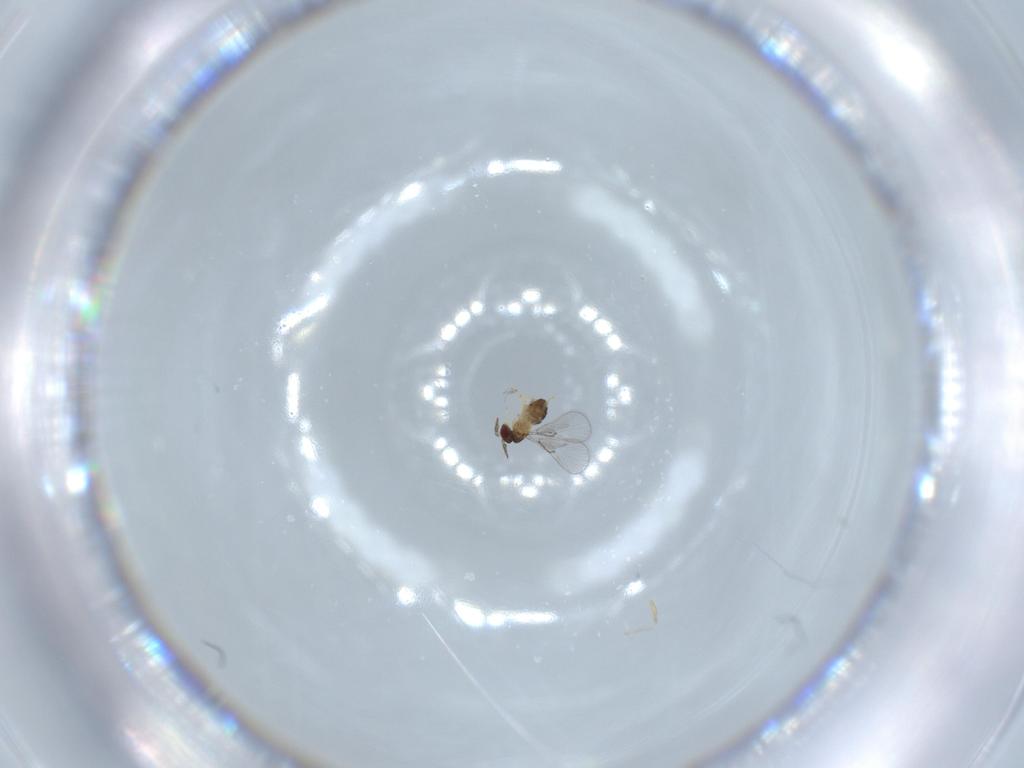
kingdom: Animalia
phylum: Arthropoda
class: Insecta
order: Hymenoptera
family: Trichogrammatidae
